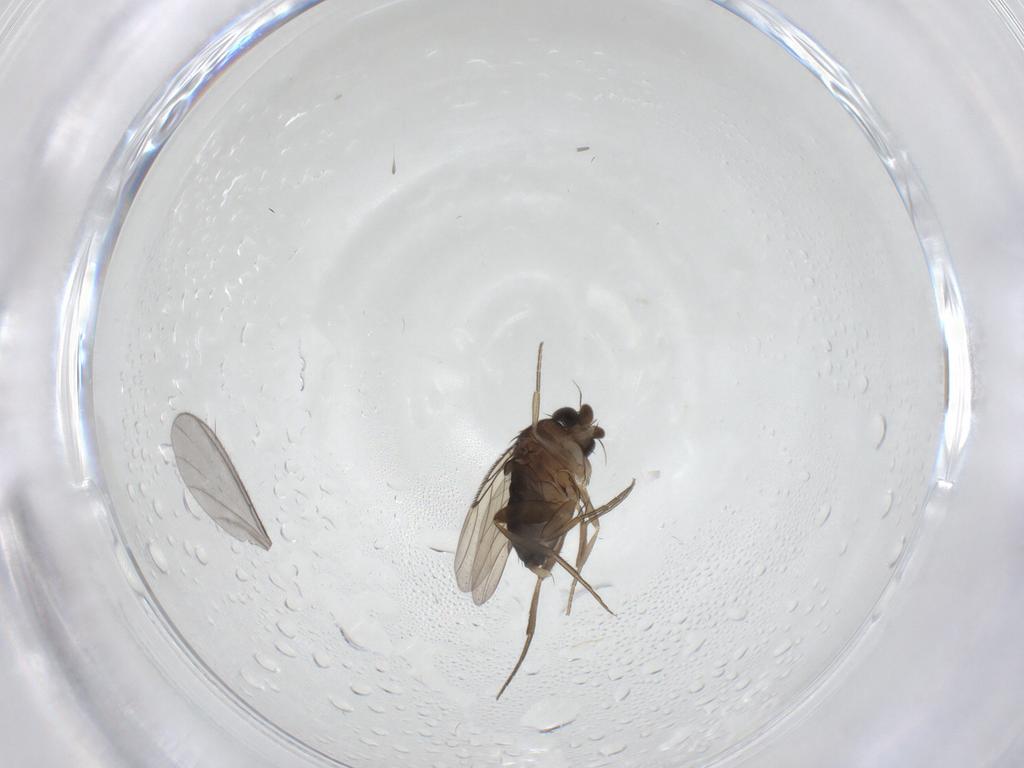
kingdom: Animalia
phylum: Arthropoda
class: Insecta
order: Diptera
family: Phoridae
